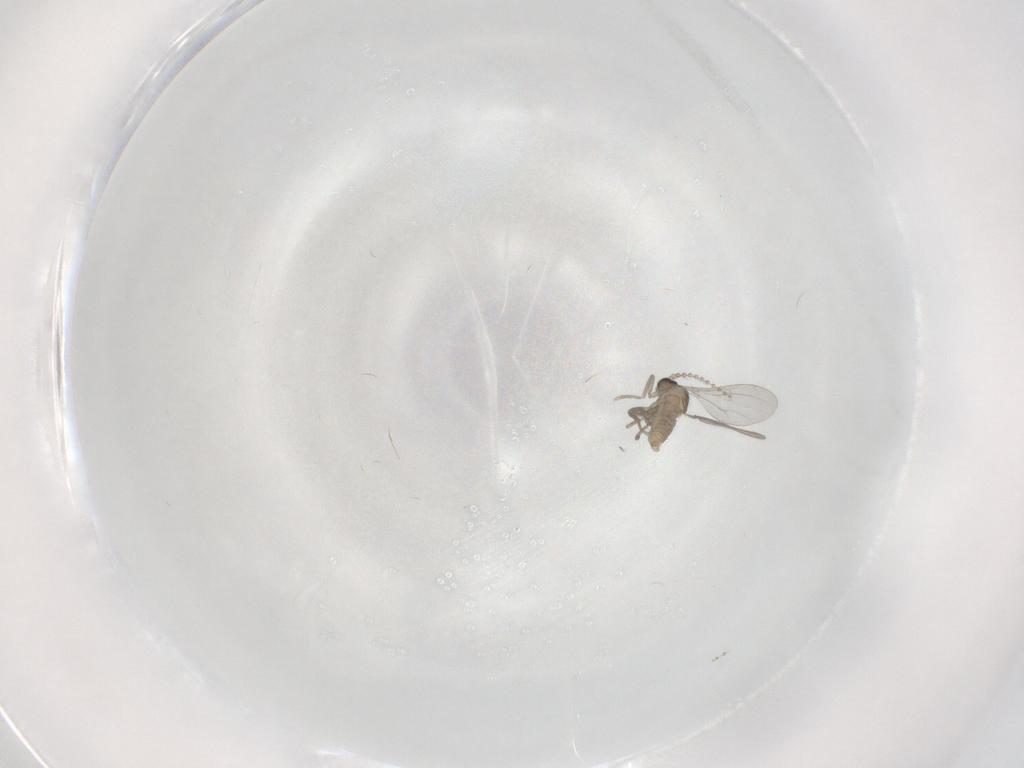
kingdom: Animalia
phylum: Arthropoda
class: Insecta
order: Diptera
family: Cecidomyiidae
